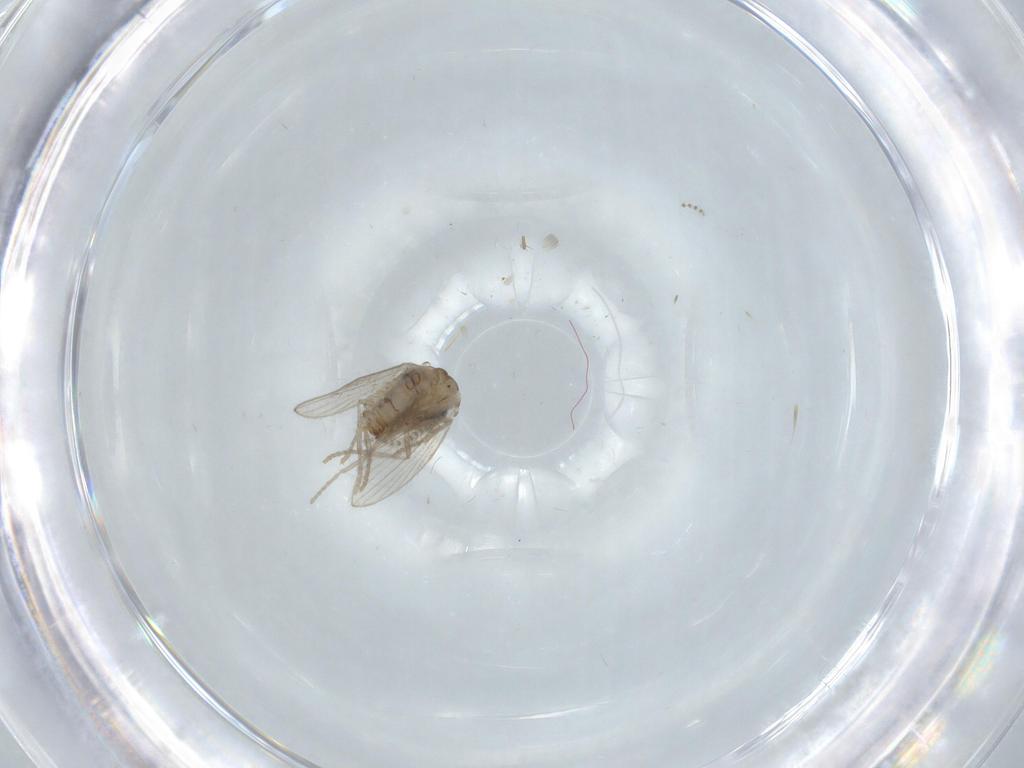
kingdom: Animalia
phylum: Arthropoda
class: Insecta
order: Diptera
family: Psychodidae
